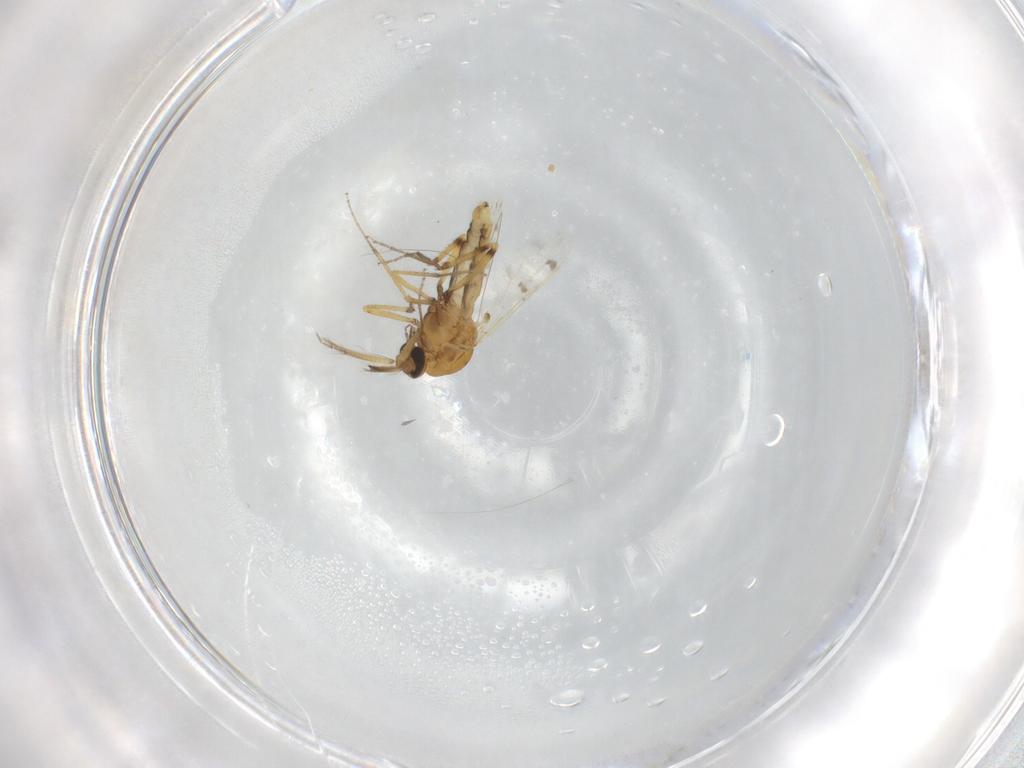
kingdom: Animalia
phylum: Arthropoda
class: Insecta
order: Diptera
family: Ceratopogonidae
